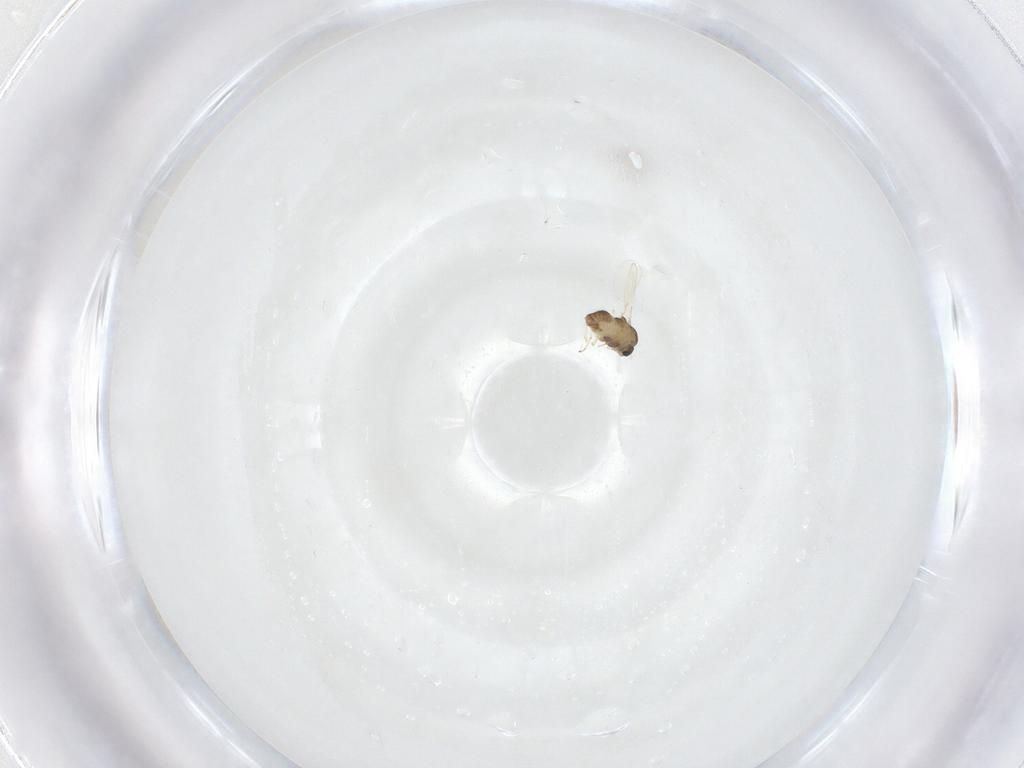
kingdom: Animalia
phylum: Arthropoda
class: Insecta
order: Diptera
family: Chironomidae
